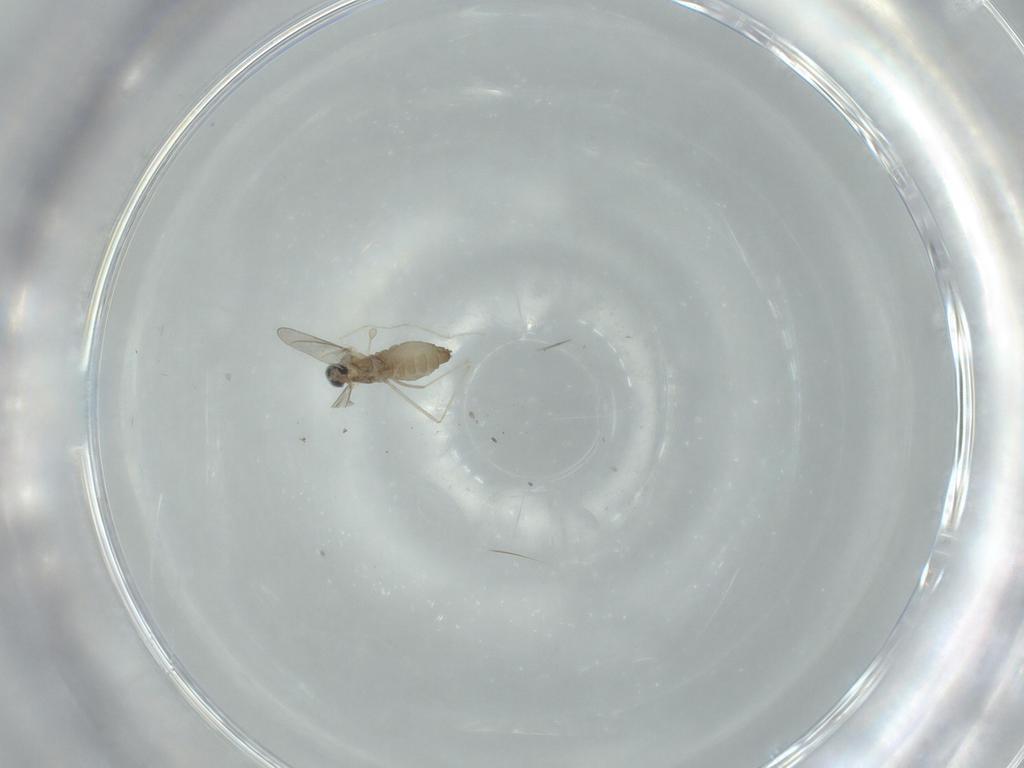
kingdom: Animalia
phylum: Arthropoda
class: Insecta
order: Diptera
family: Cecidomyiidae
